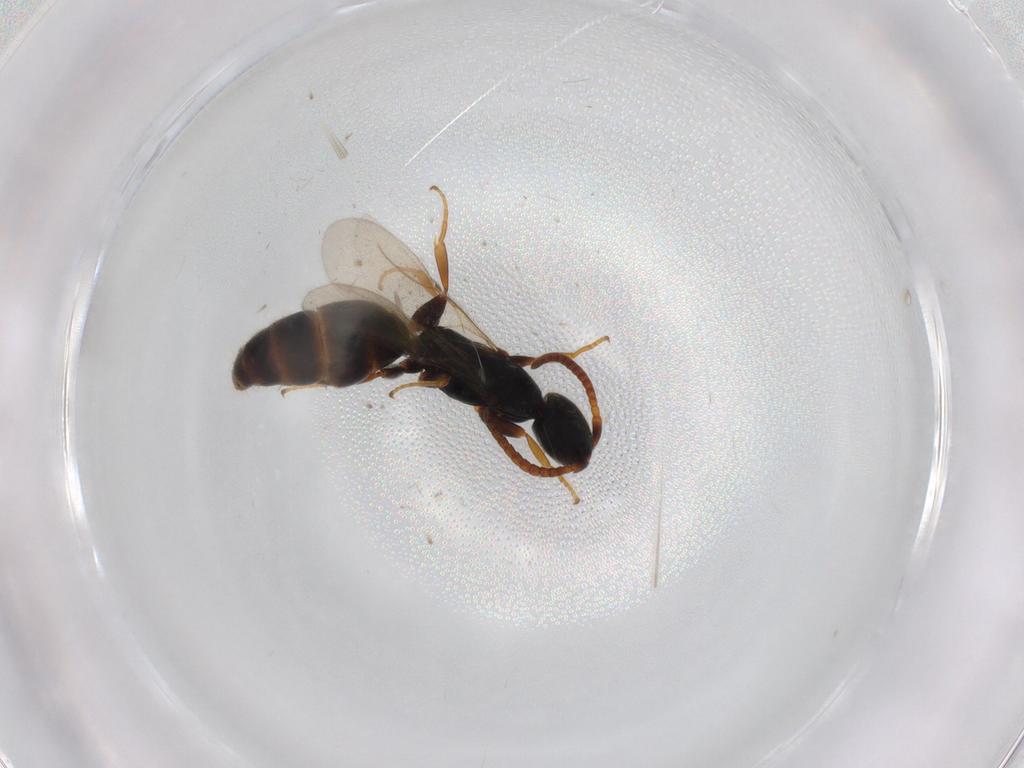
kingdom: Animalia
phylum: Arthropoda
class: Insecta
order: Hymenoptera
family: Bethylidae
